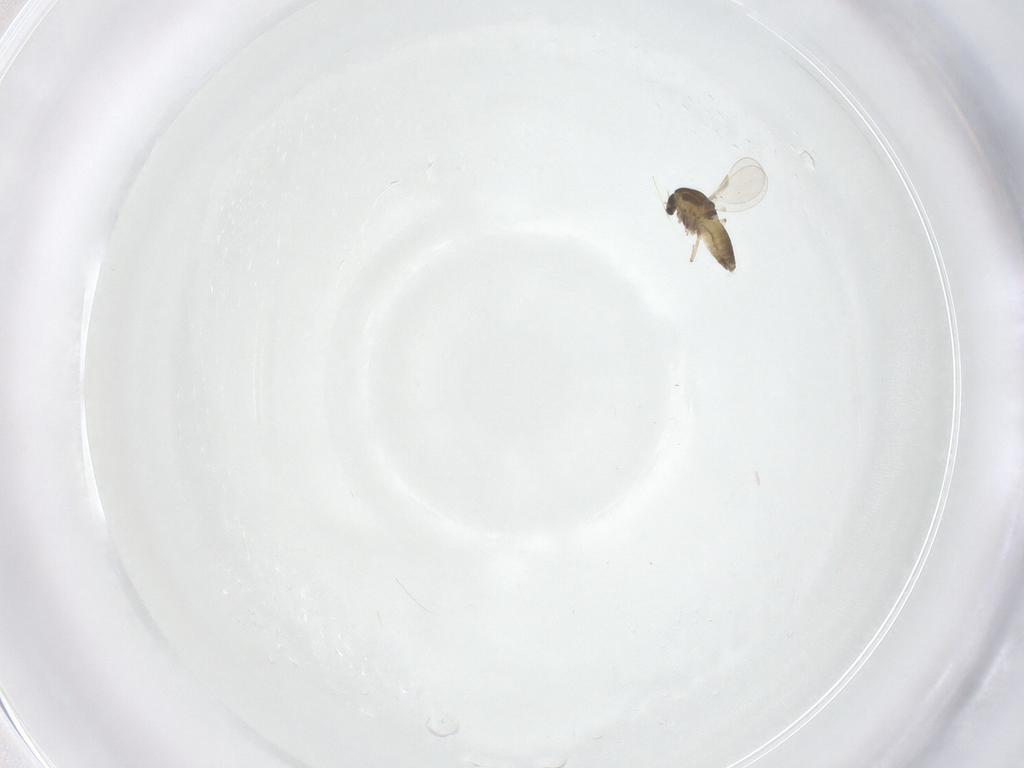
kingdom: Animalia
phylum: Arthropoda
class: Insecta
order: Diptera
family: Chironomidae
